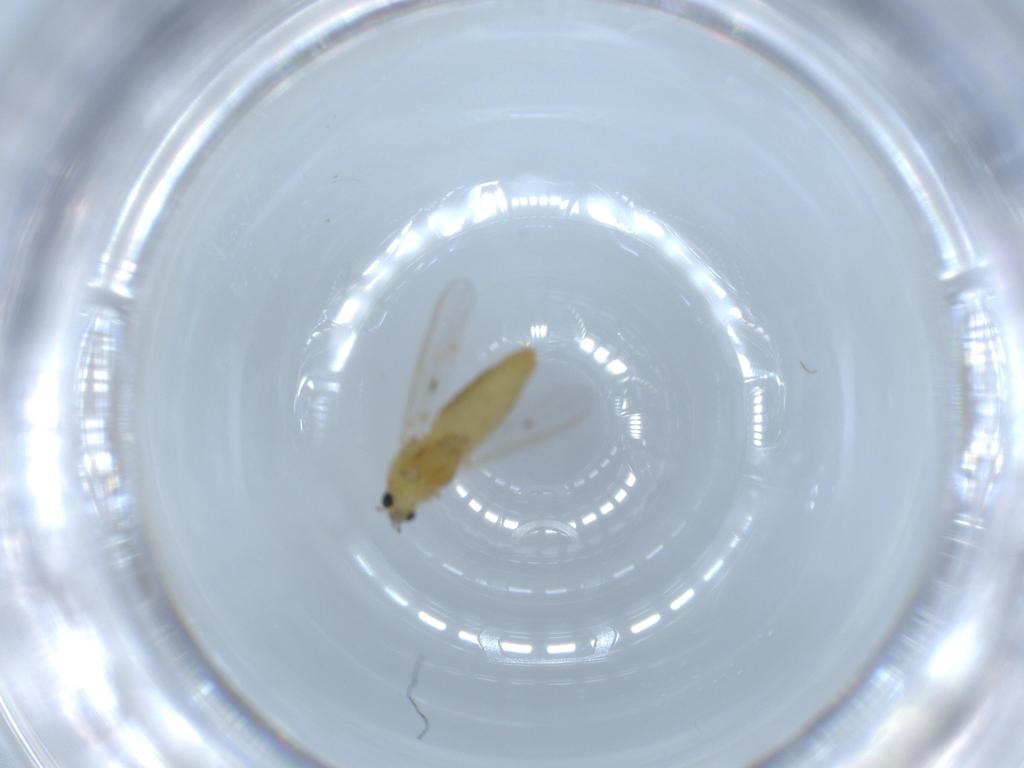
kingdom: Animalia
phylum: Arthropoda
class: Insecta
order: Diptera
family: Chironomidae
